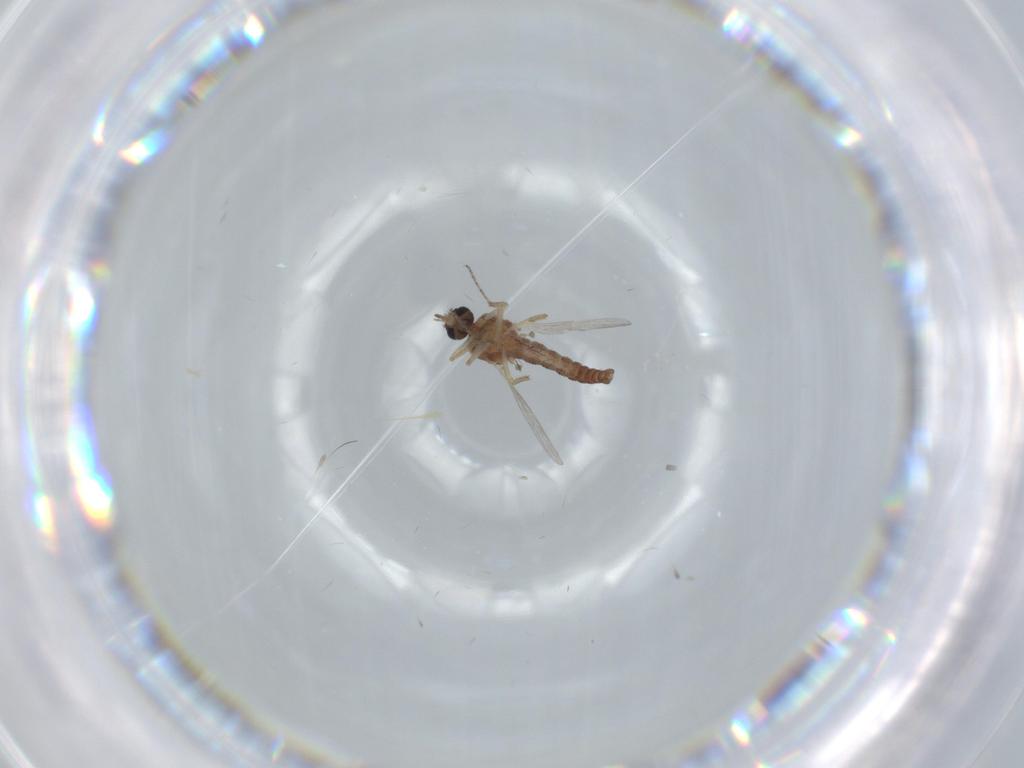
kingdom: Animalia
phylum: Arthropoda
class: Insecta
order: Diptera
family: Ceratopogonidae
